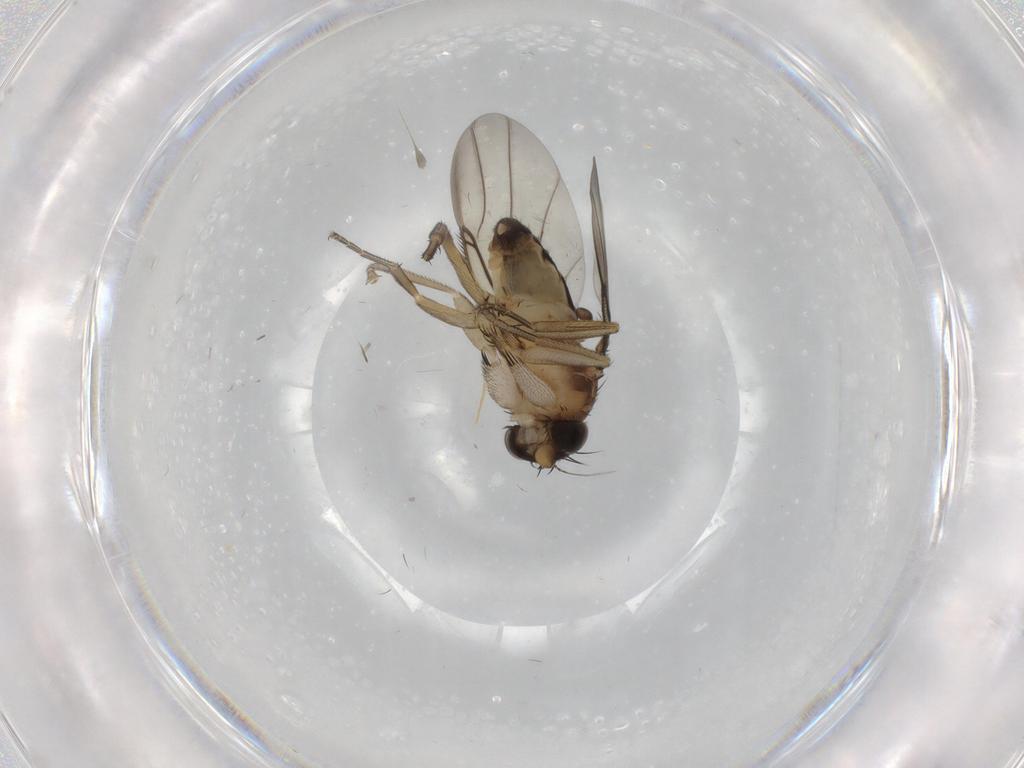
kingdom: Animalia
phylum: Arthropoda
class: Insecta
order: Diptera
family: Phoridae
